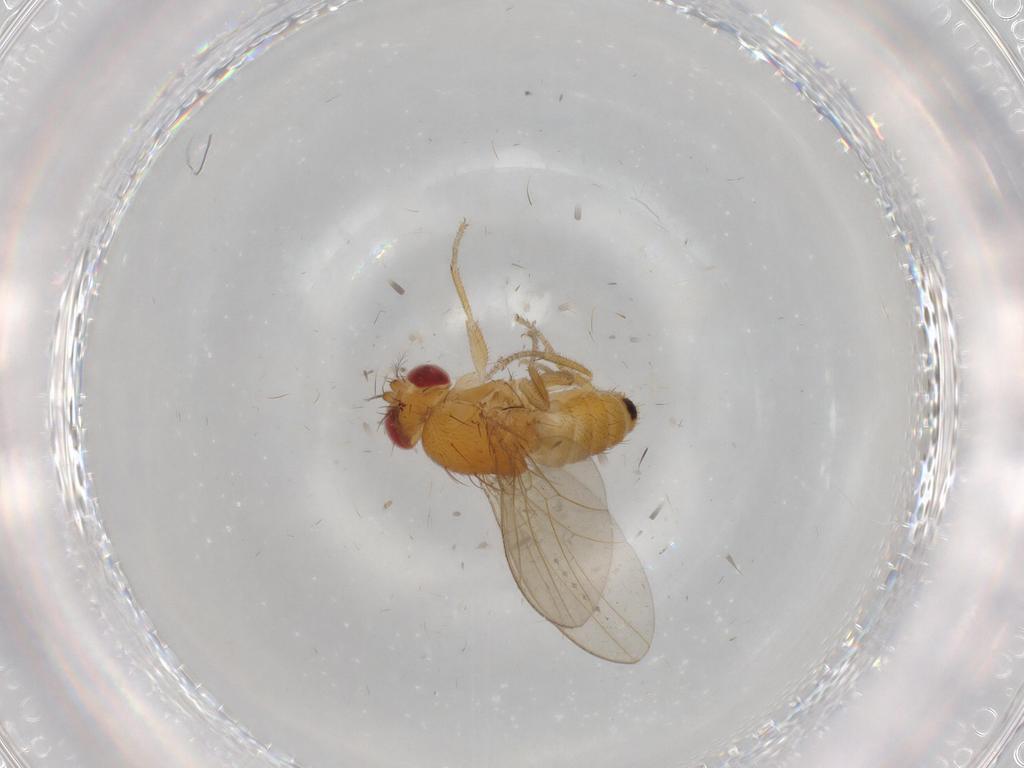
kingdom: Animalia
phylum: Arthropoda
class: Insecta
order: Diptera
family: Drosophilidae
